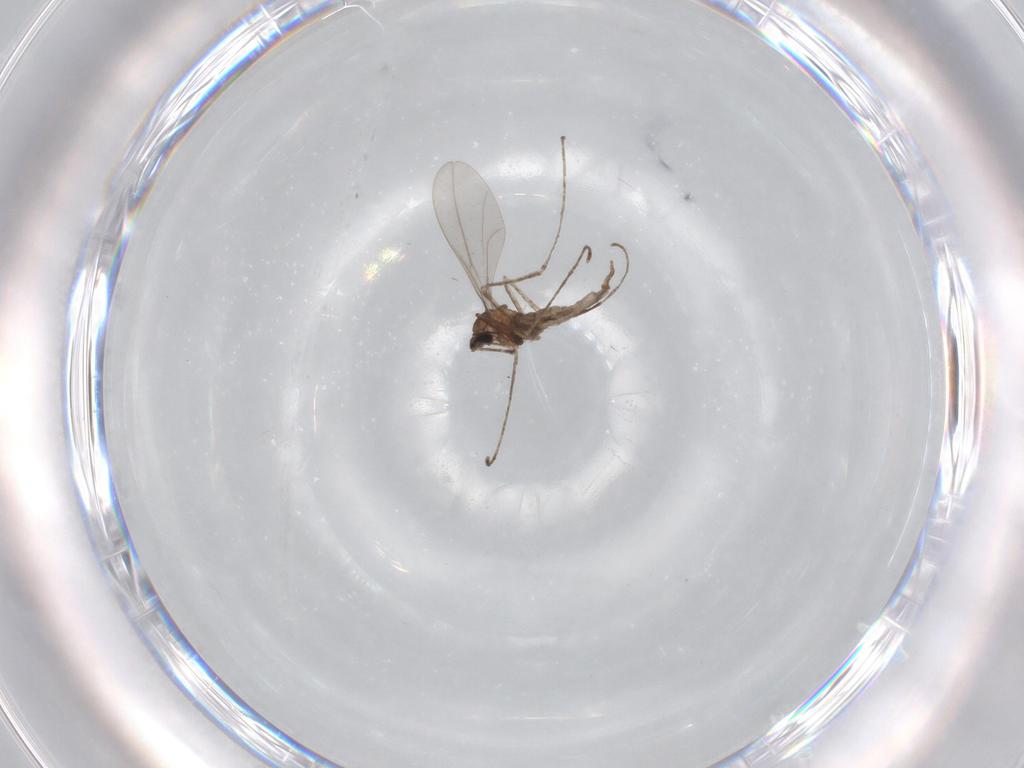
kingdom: Animalia
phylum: Arthropoda
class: Insecta
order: Diptera
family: Cecidomyiidae
